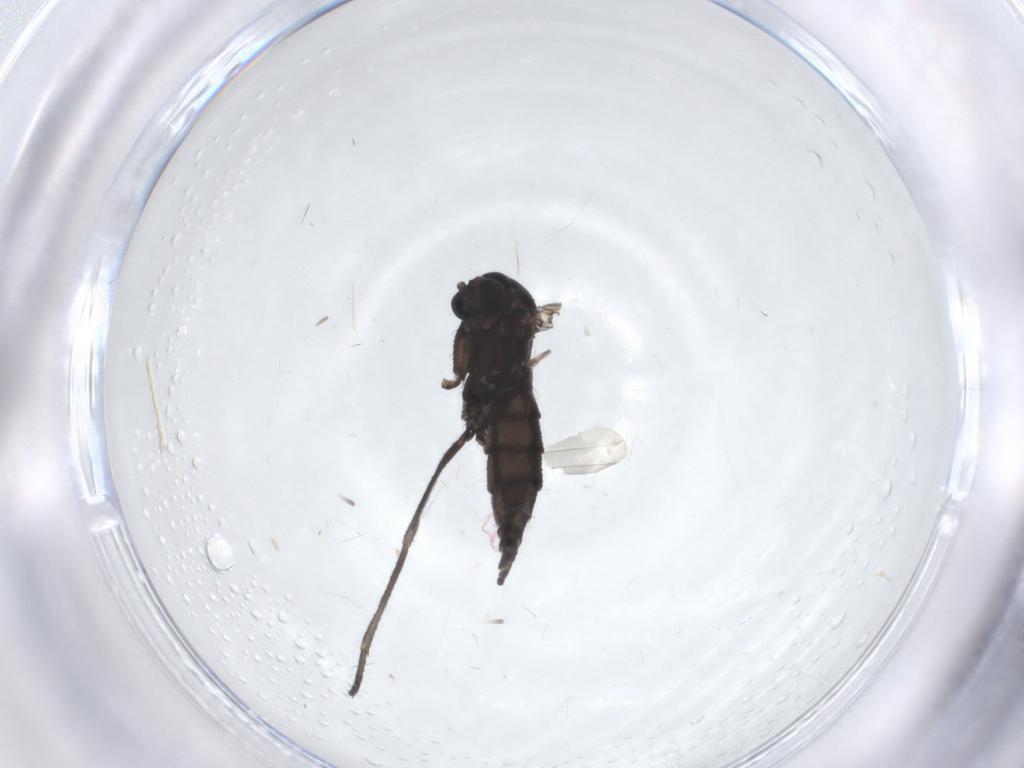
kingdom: Animalia
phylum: Arthropoda
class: Insecta
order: Diptera
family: Sciaridae
